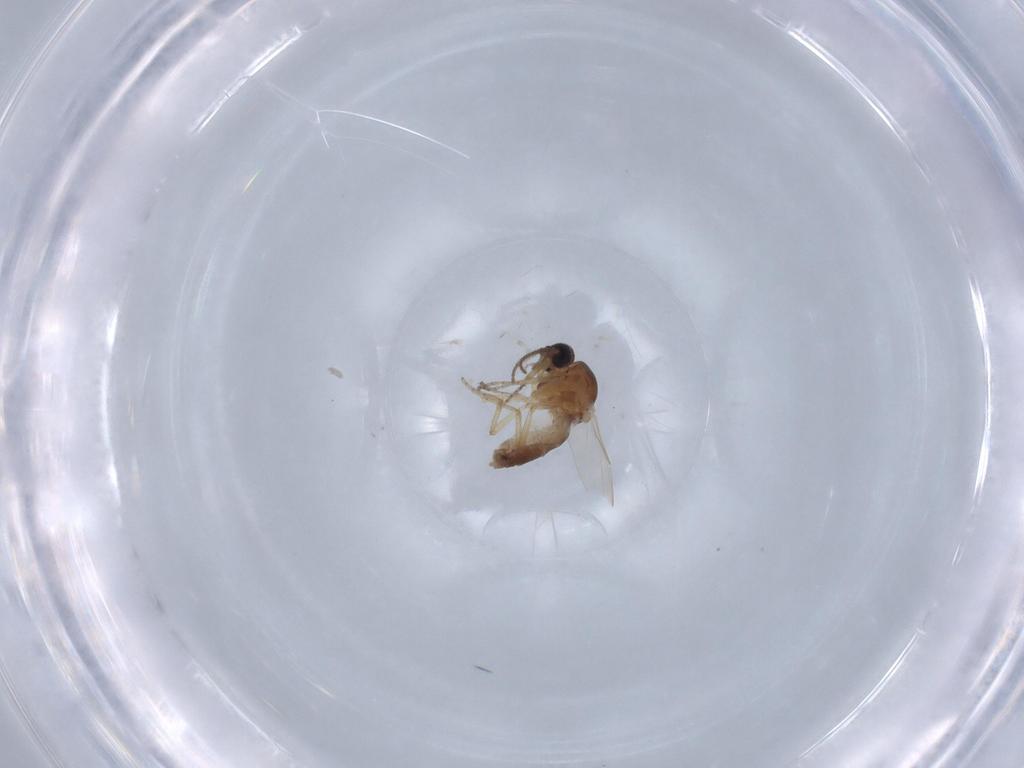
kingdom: Animalia
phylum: Arthropoda
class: Insecta
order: Diptera
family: Ceratopogonidae
